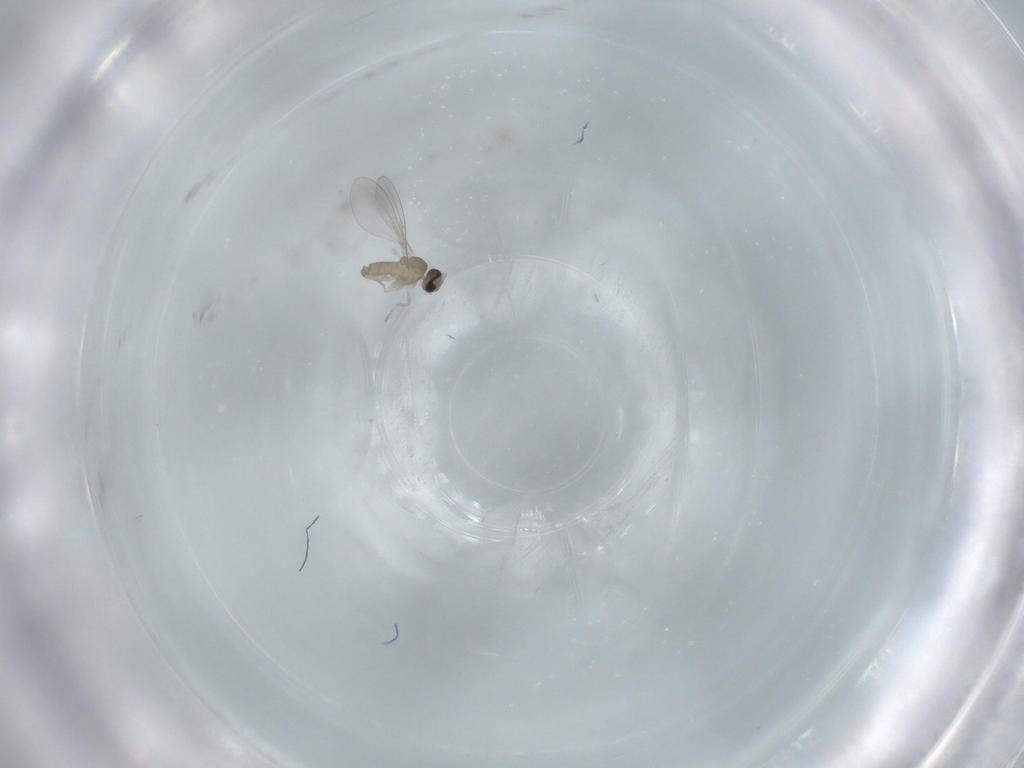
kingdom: Animalia
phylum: Arthropoda
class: Insecta
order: Diptera
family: Cecidomyiidae
